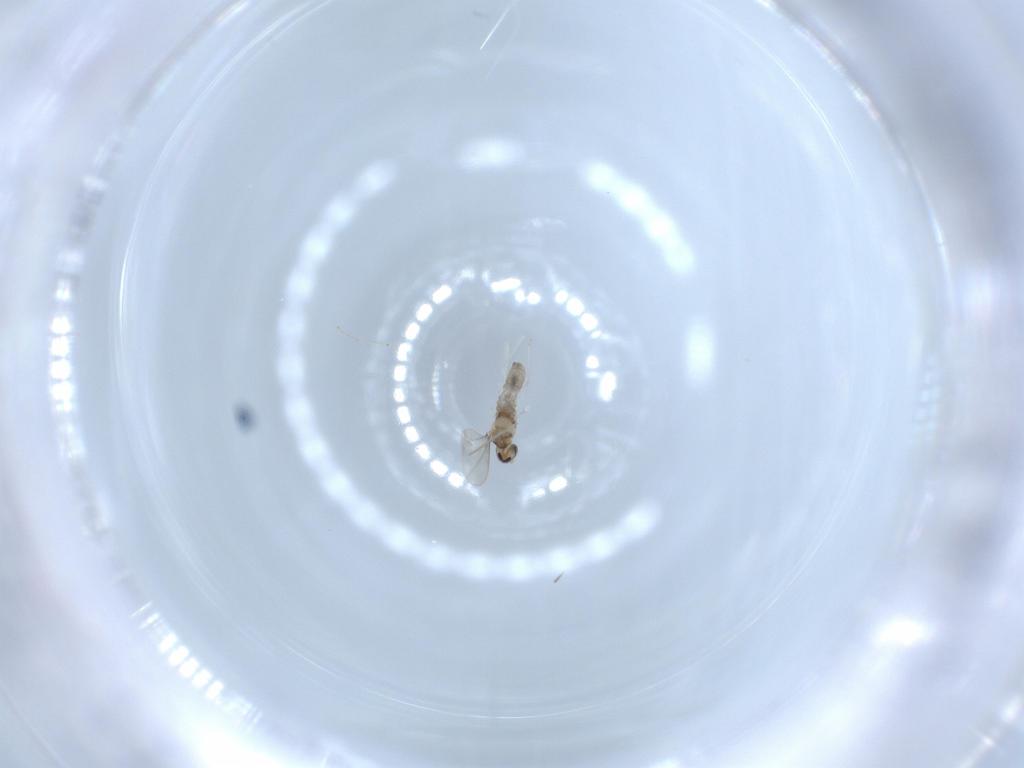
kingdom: Animalia
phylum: Arthropoda
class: Insecta
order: Diptera
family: Cecidomyiidae
